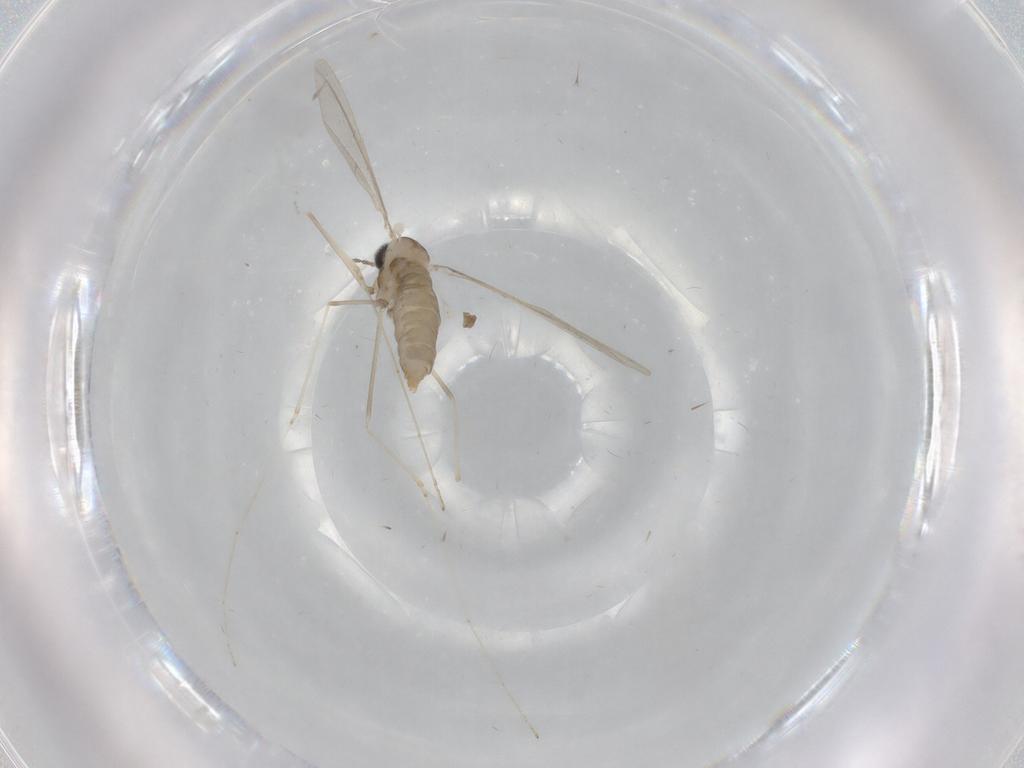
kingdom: Animalia
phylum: Arthropoda
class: Insecta
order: Diptera
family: Cecidomyiidae
